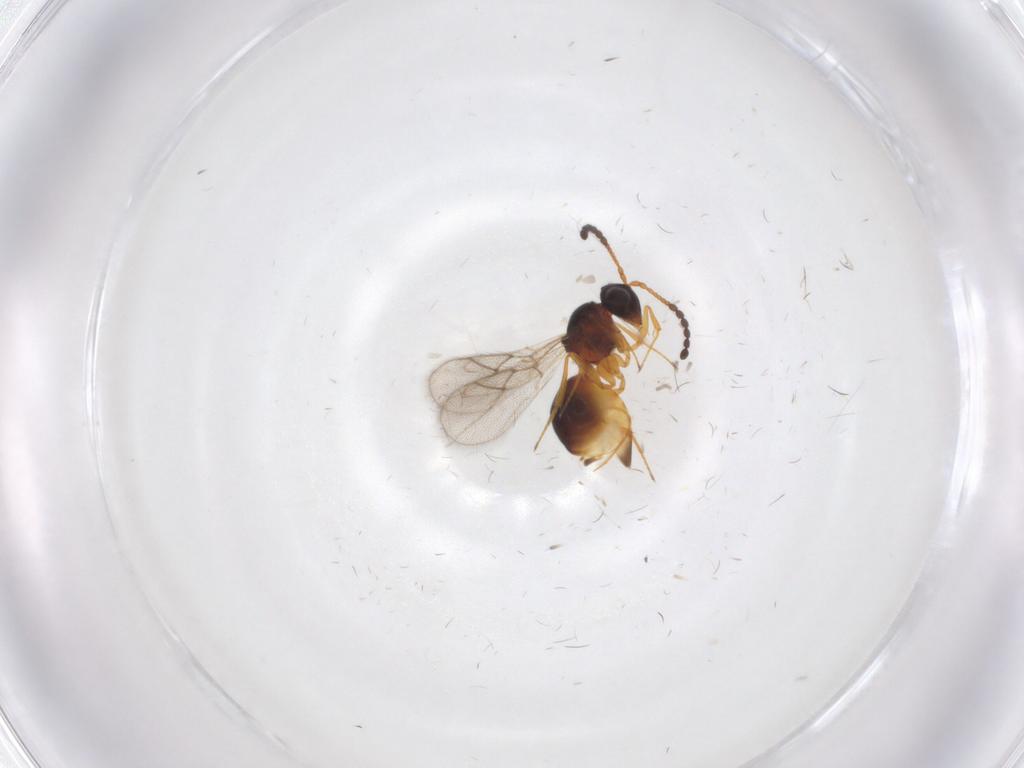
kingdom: Animalia
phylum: Arthropoda
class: Insecta
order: Hymenoptera
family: Figitidae
